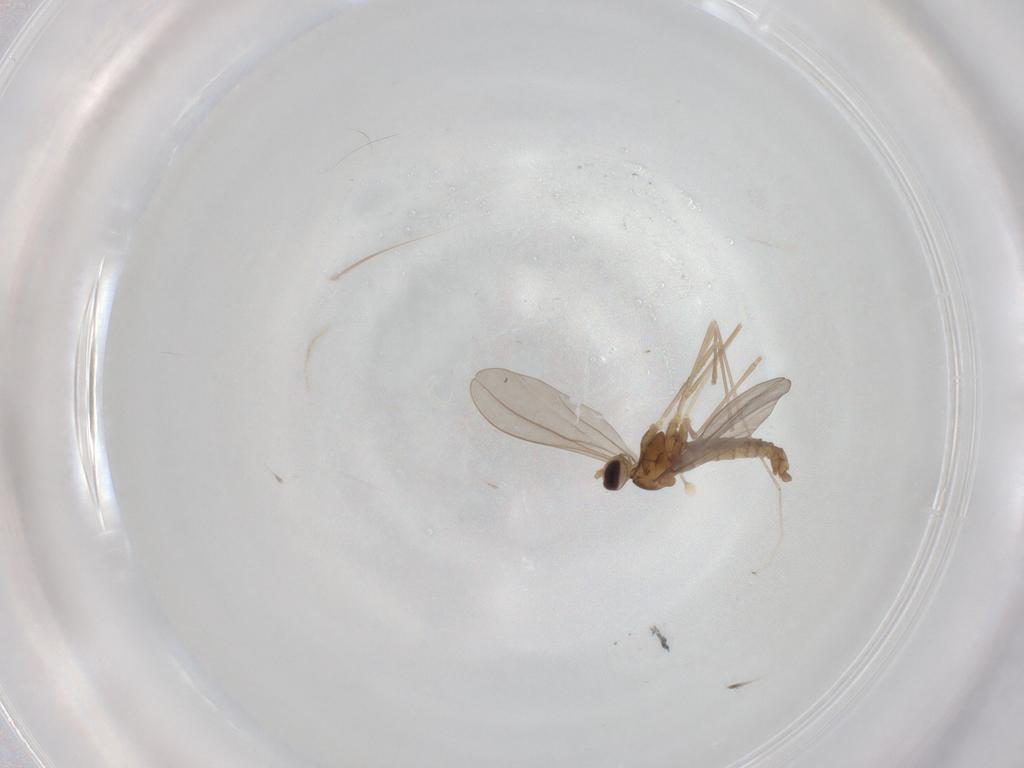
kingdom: Animalia
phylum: Arthropoda
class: Insecta
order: Diptera
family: Cecidomyiidae
